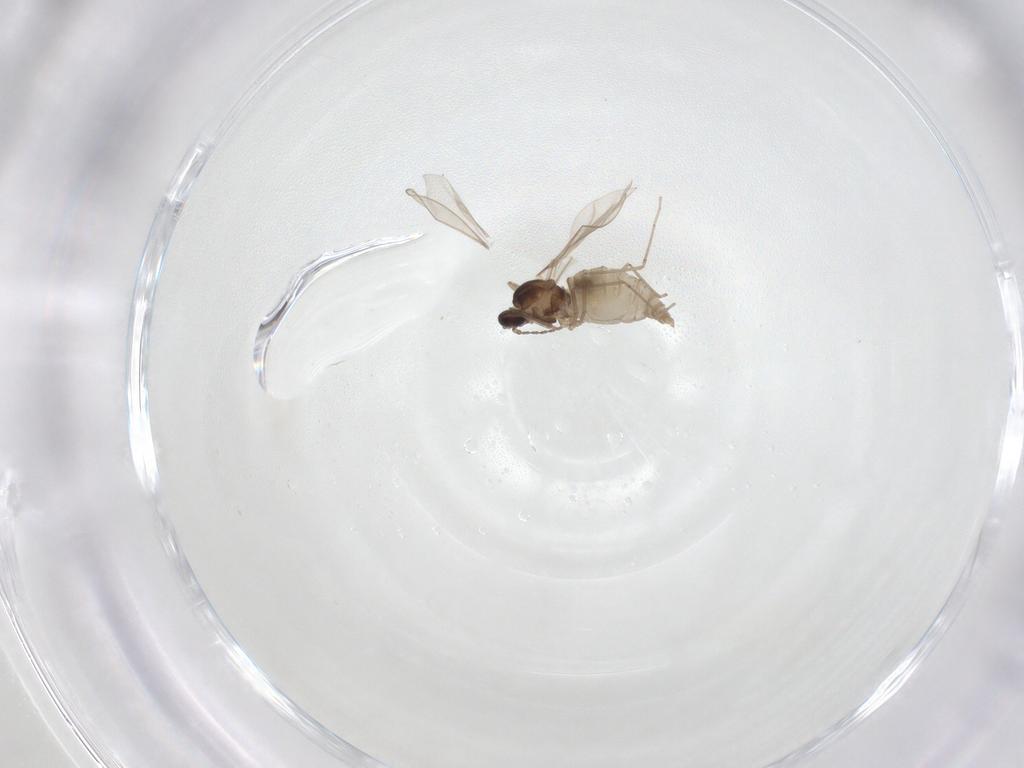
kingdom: Animalia
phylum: Arthropoda
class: Insecta
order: Diptera
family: Cecidomyiidae
